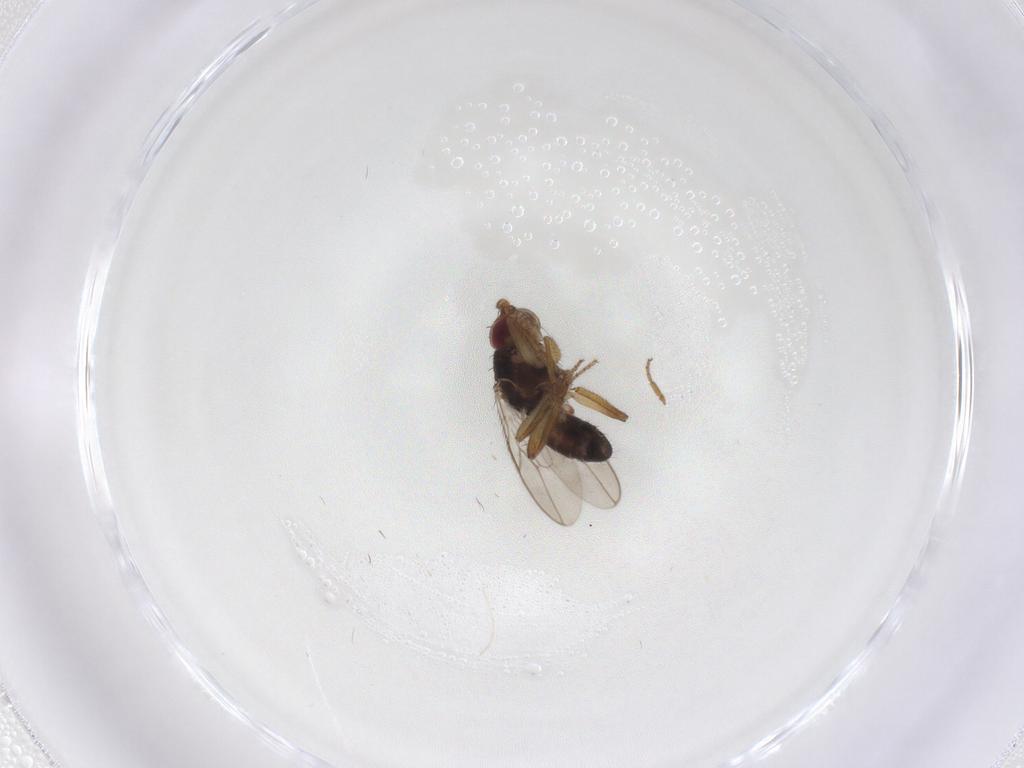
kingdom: Animalia
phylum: Arthropoda
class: Insecta
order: Diptera
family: Sphaeroceridae
